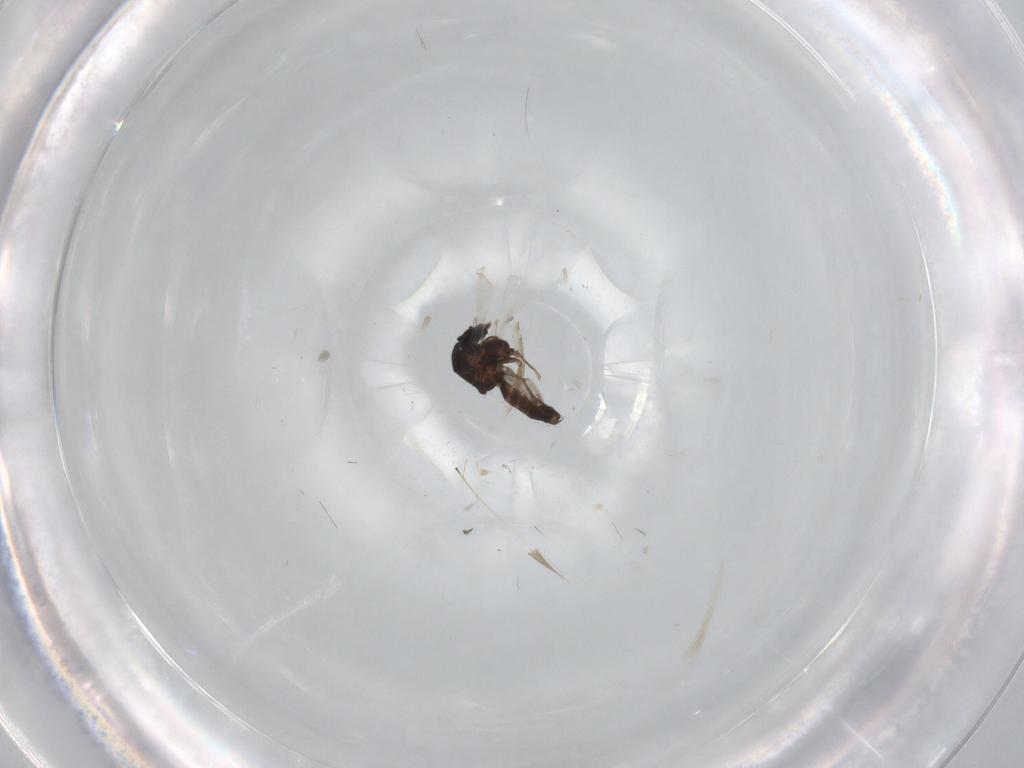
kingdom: Animalia
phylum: Arthropoda
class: Insecta
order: Diptera
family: Ceratopogonidae
